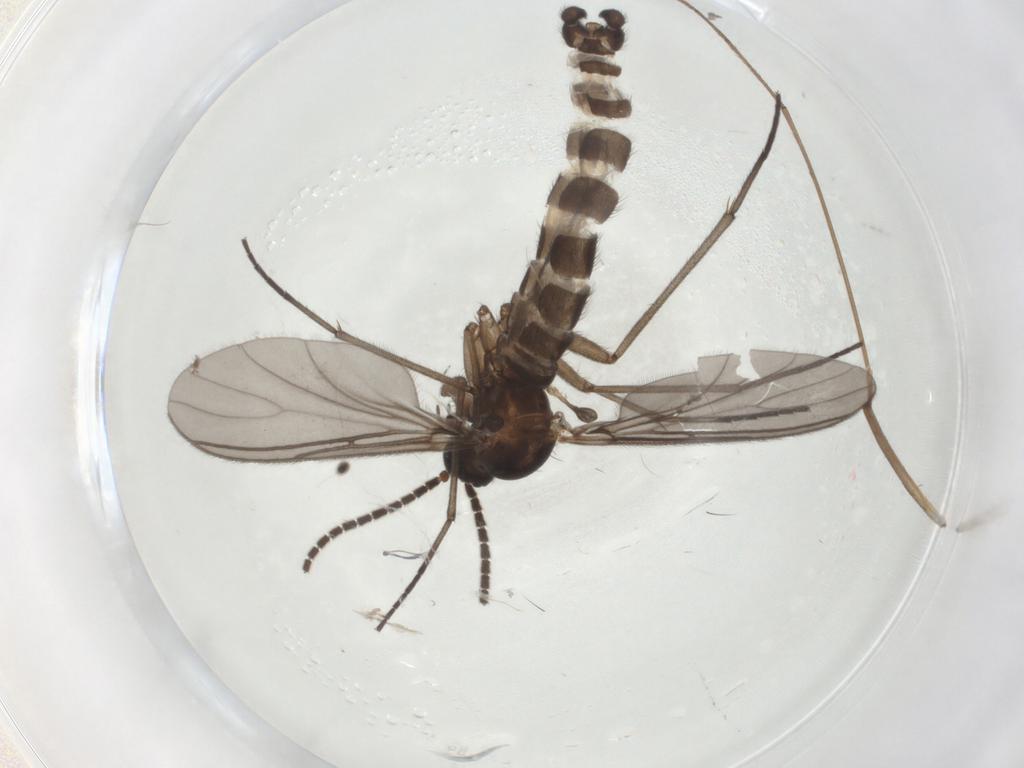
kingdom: Animalia
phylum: Arthropoda
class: Insecta
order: Diptera
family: Sciaridae
